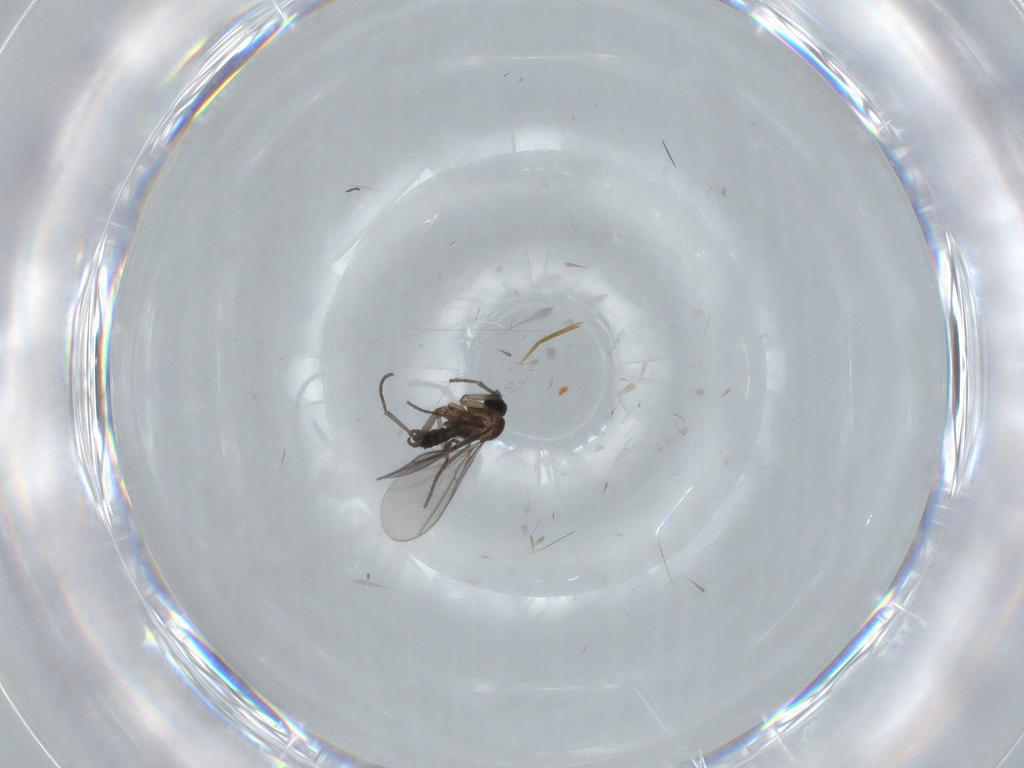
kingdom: Animalia
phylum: Arthropoda
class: Insecta
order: Diptera
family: Simuliidae
